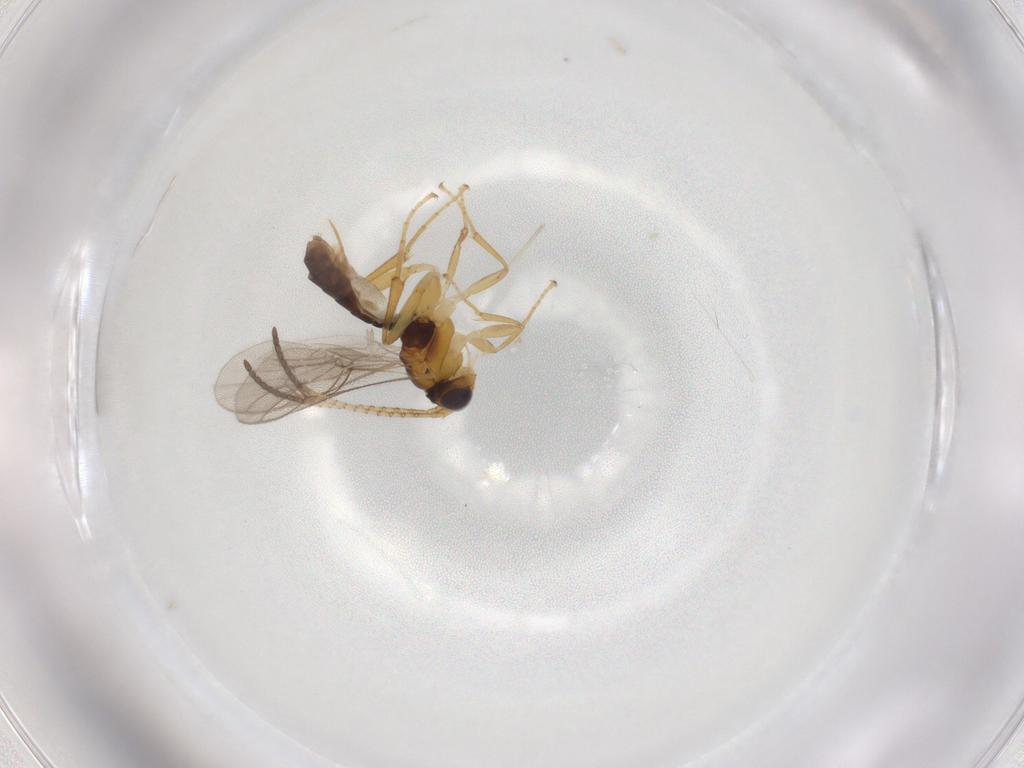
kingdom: Animalia
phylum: Arthropoda
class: Insecta
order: Hymenoptera
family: Ichneumonidae
